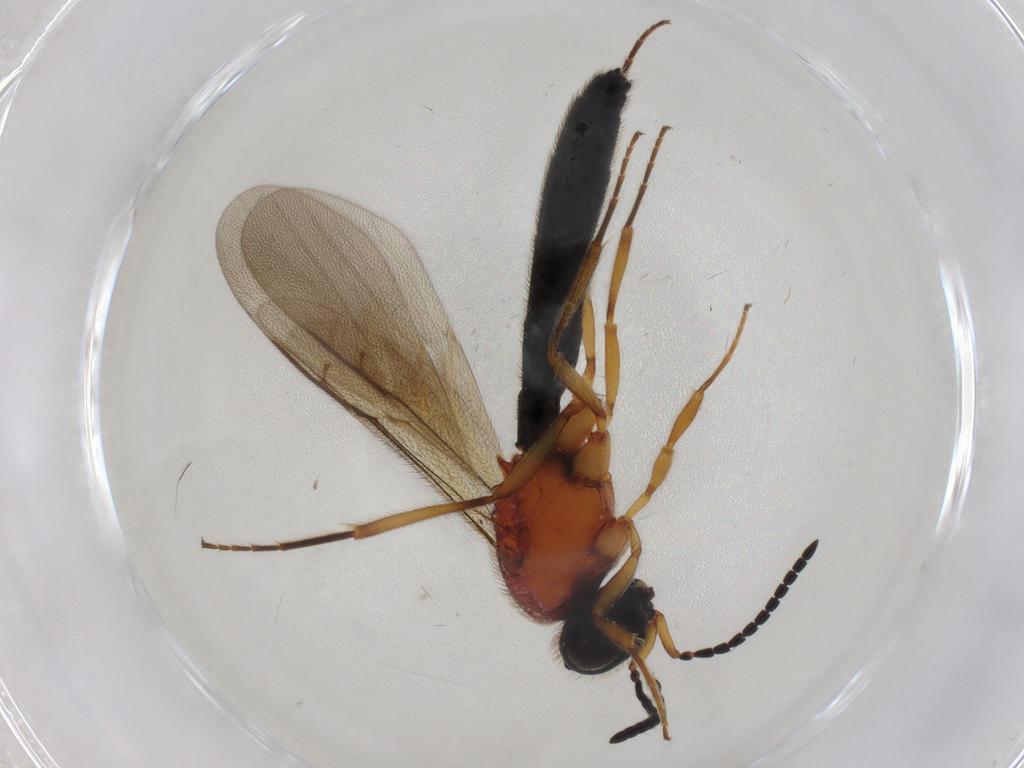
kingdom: Animalia
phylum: Arthropoda
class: Insecta
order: Hymenoptera
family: Scelionidae
